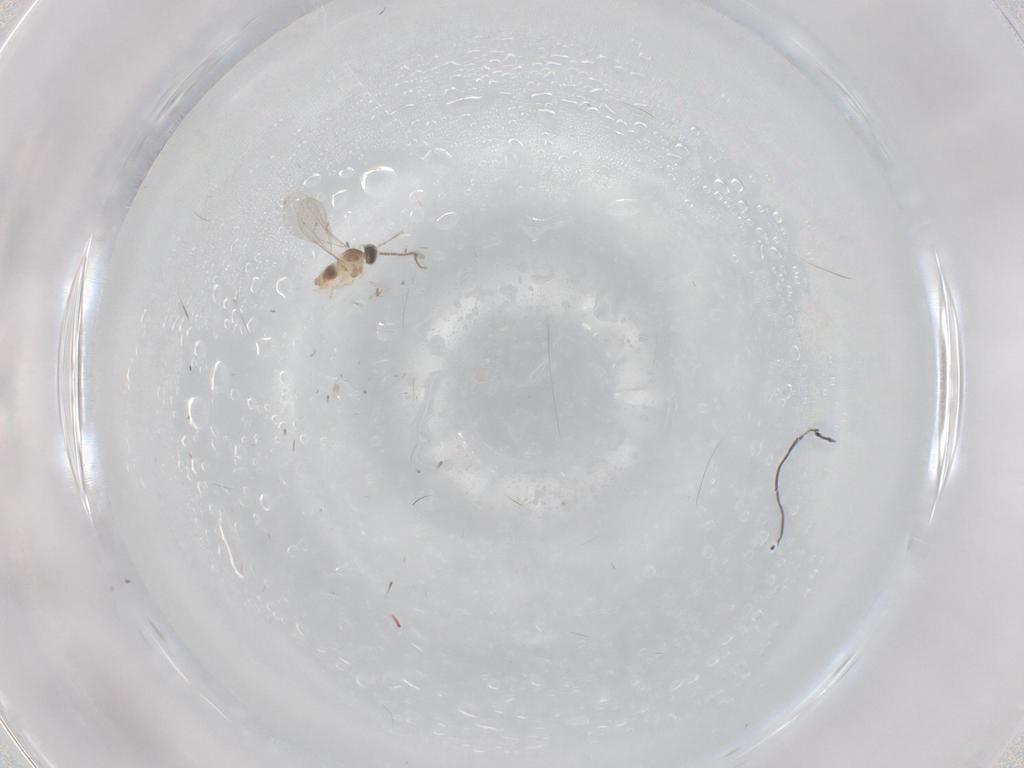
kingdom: Animalia
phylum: Arthropoda
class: Insecta
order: Diptera
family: Cecidomyiidae
